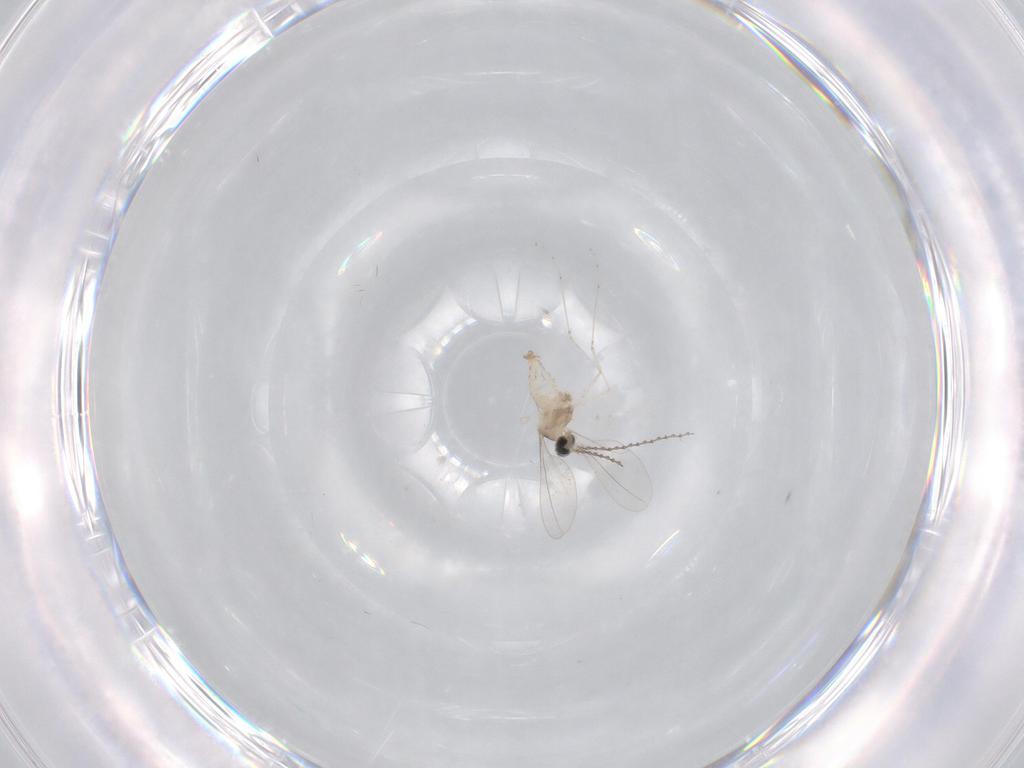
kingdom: Animalia
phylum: Arthropoda
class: Insecta
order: Diptera
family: Cecidomyiidae
